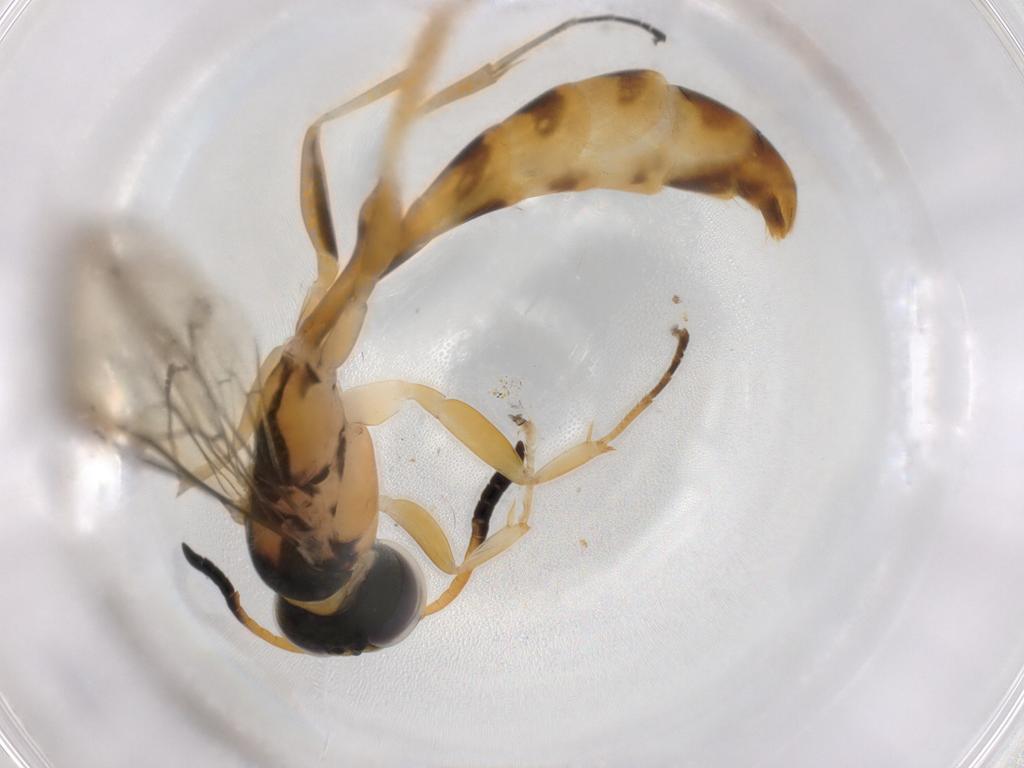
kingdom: Animalia
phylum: Arthropoda
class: Insecta
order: Hymenoptera
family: Crabronidae
